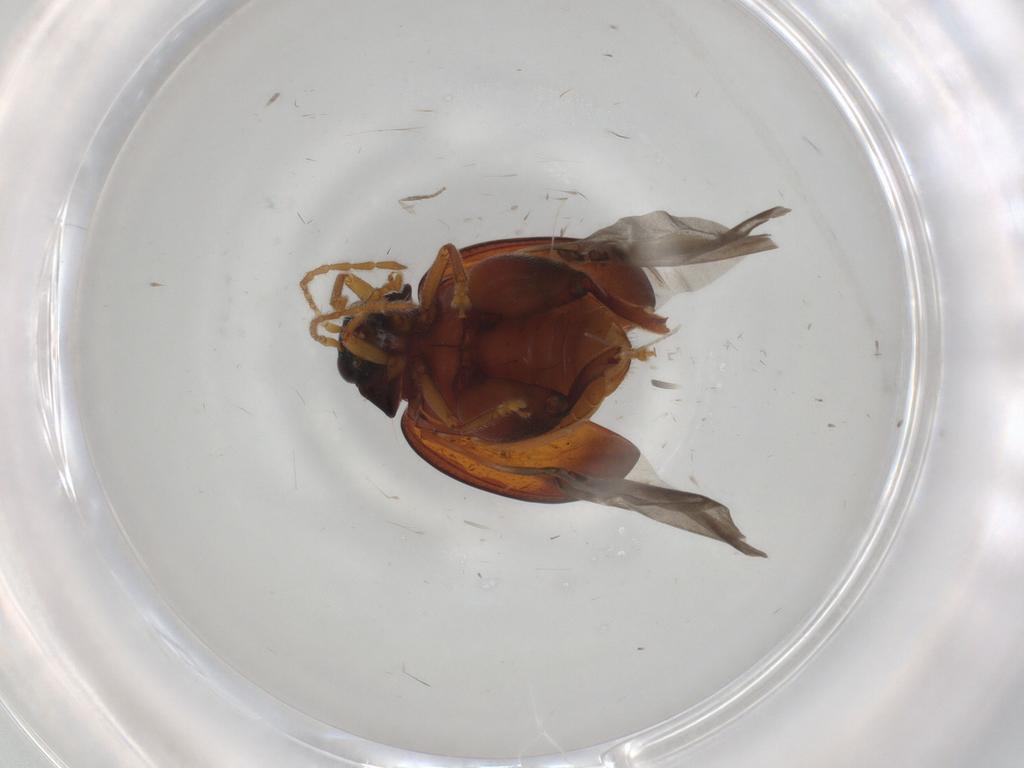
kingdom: Animalia
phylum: Arthropoda
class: Insecta
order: Coleoptera
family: Chrysomelidae
